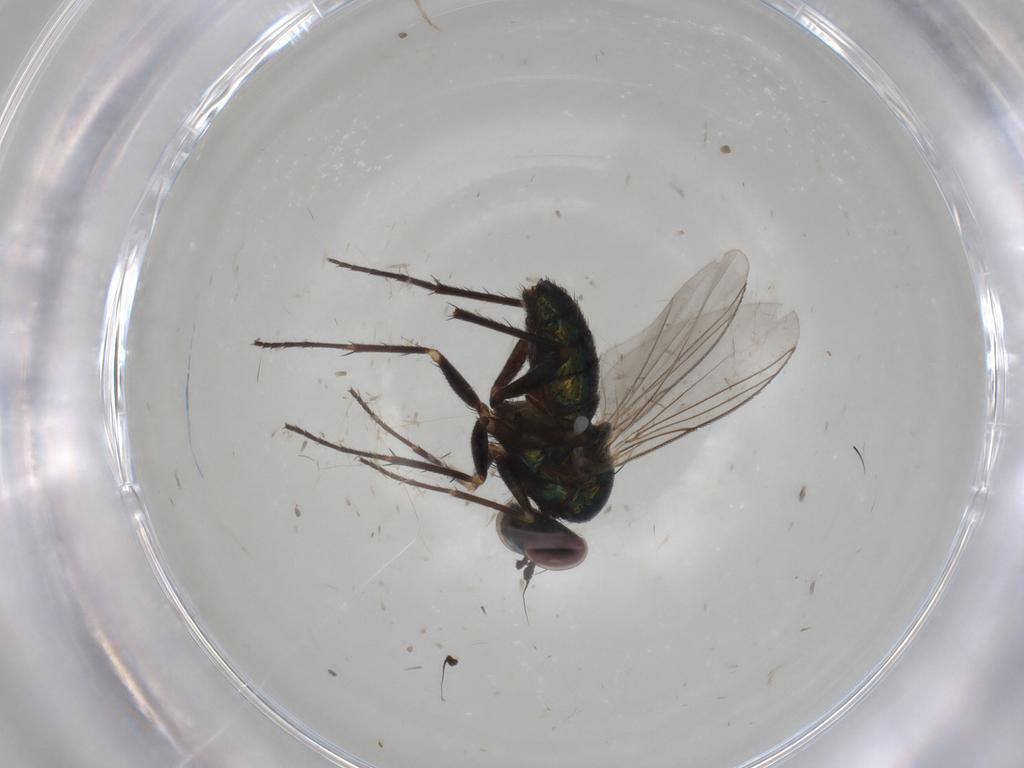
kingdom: Animalia
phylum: Arthropoda
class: Insecta
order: Diptera
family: Dolichopodidae
